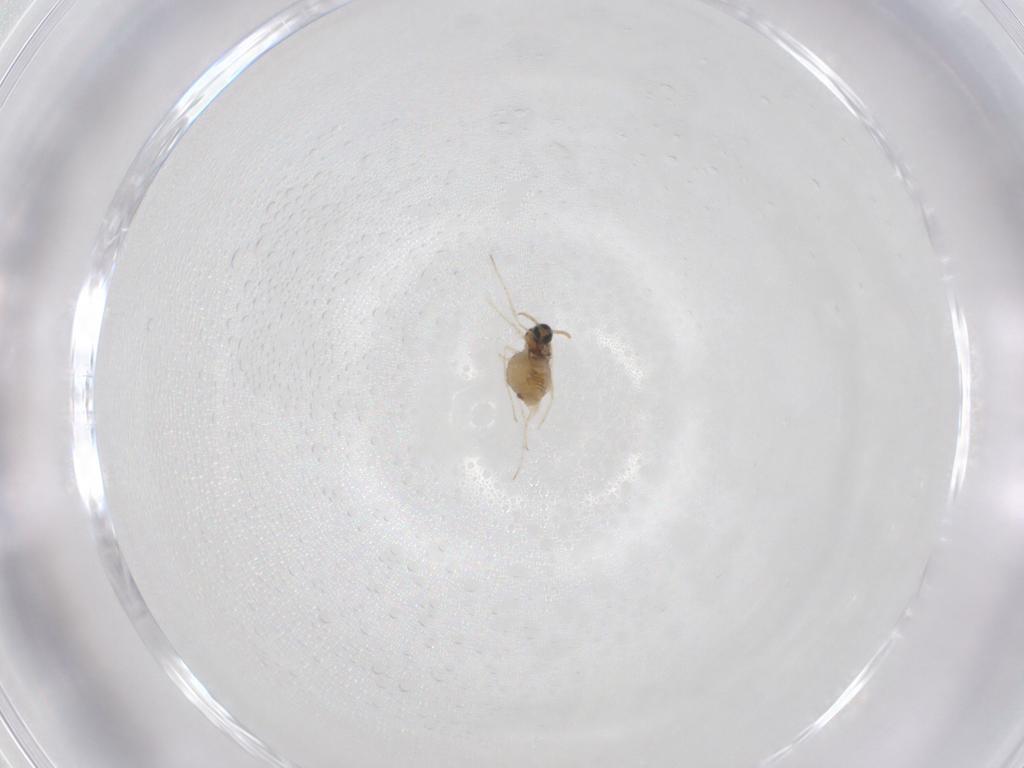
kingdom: Animalia
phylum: Arthropoda
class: Insecta
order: Diptera
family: Cecidomyiidae
